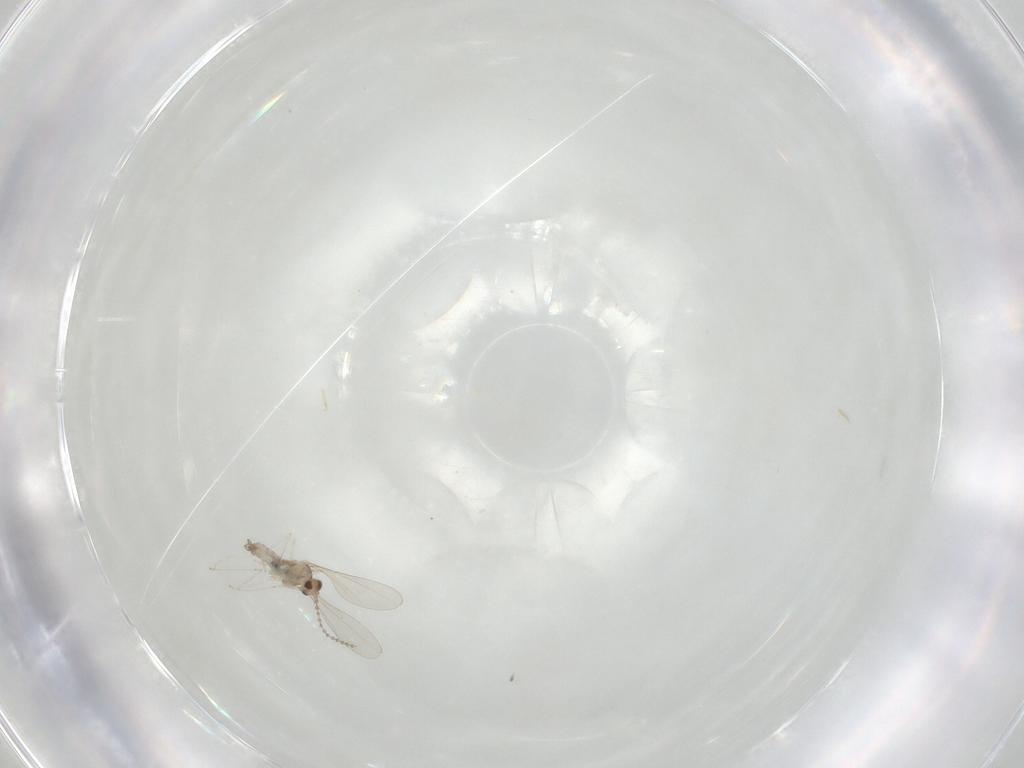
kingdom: Animalia
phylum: Arthropoda
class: Insecta
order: Diptera
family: Cecidomyiidae
